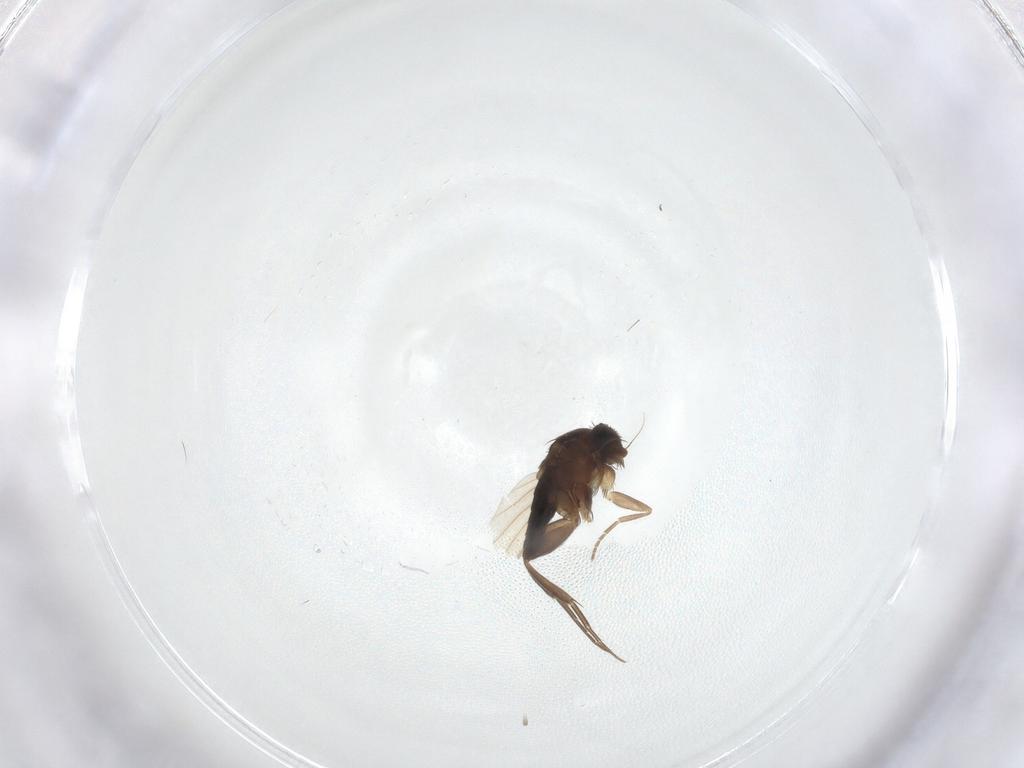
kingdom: Animalia
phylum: Arthropoda
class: Insecta
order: Diptera
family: Phoridae
